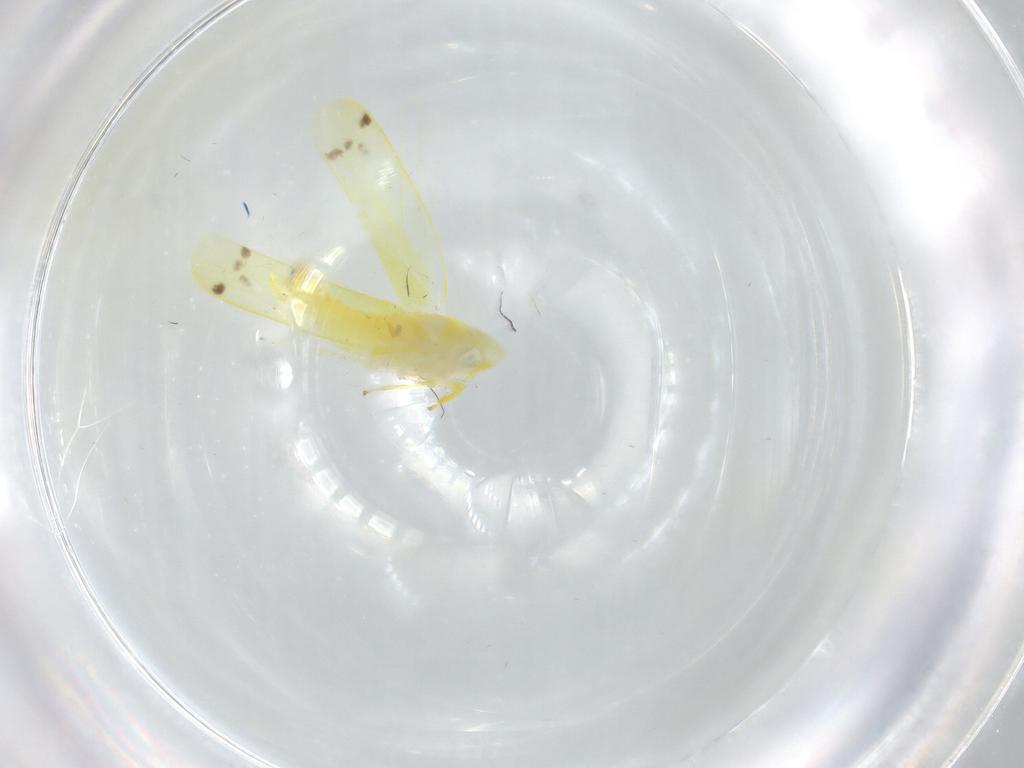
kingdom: Animalia
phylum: Arthropoda
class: Insecta
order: Hemiptera
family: Cicadellidae
